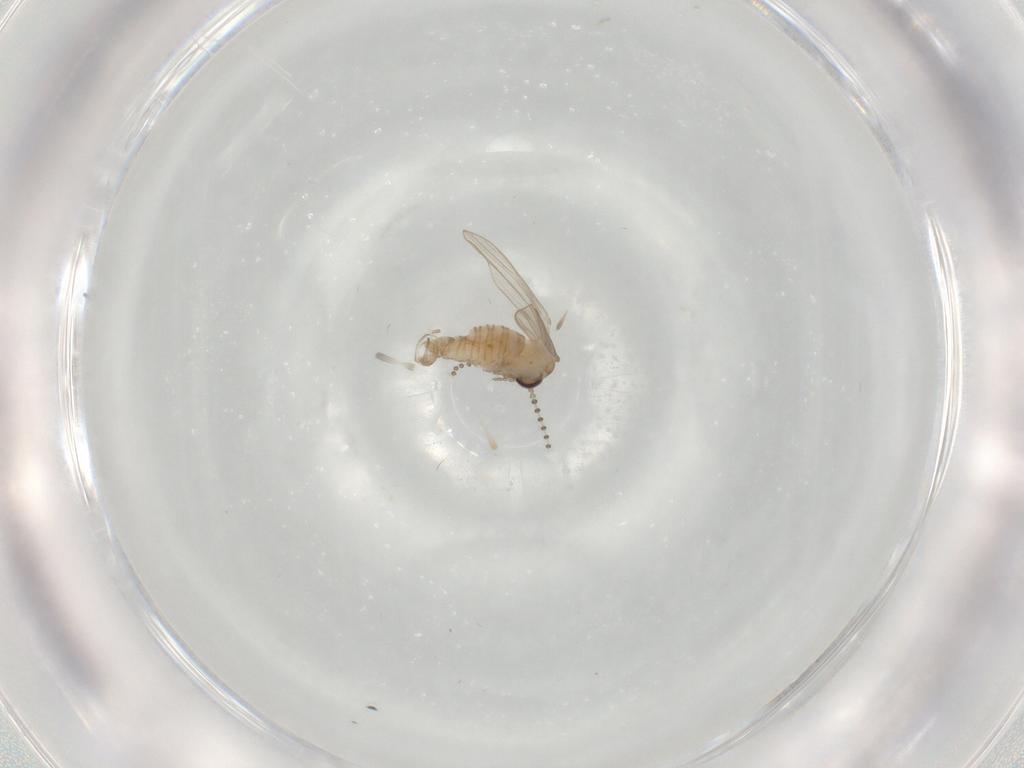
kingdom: Animalia
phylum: Arthropoda
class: Insecta
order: Diptera
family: Psychodidae
